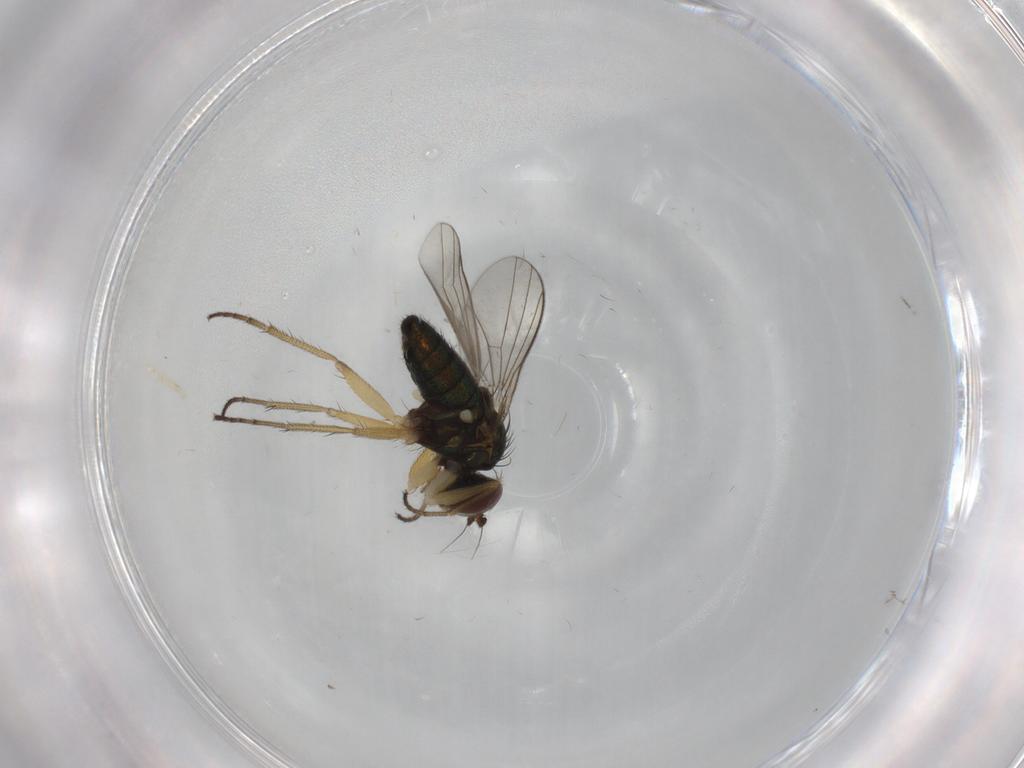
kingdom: Animalia
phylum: Arthropoda
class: Insecta
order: Diptera
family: Dolichopodidae
